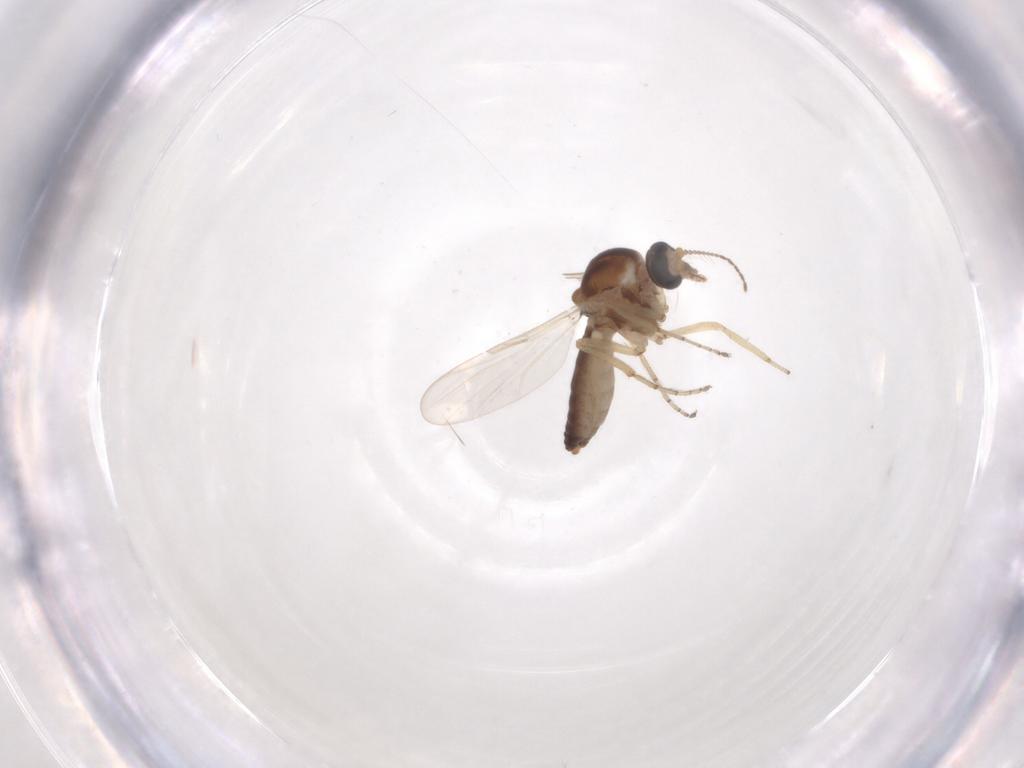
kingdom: Animalia
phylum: Arthropoda
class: Insecta
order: Diptera
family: Ceratopogonidae
